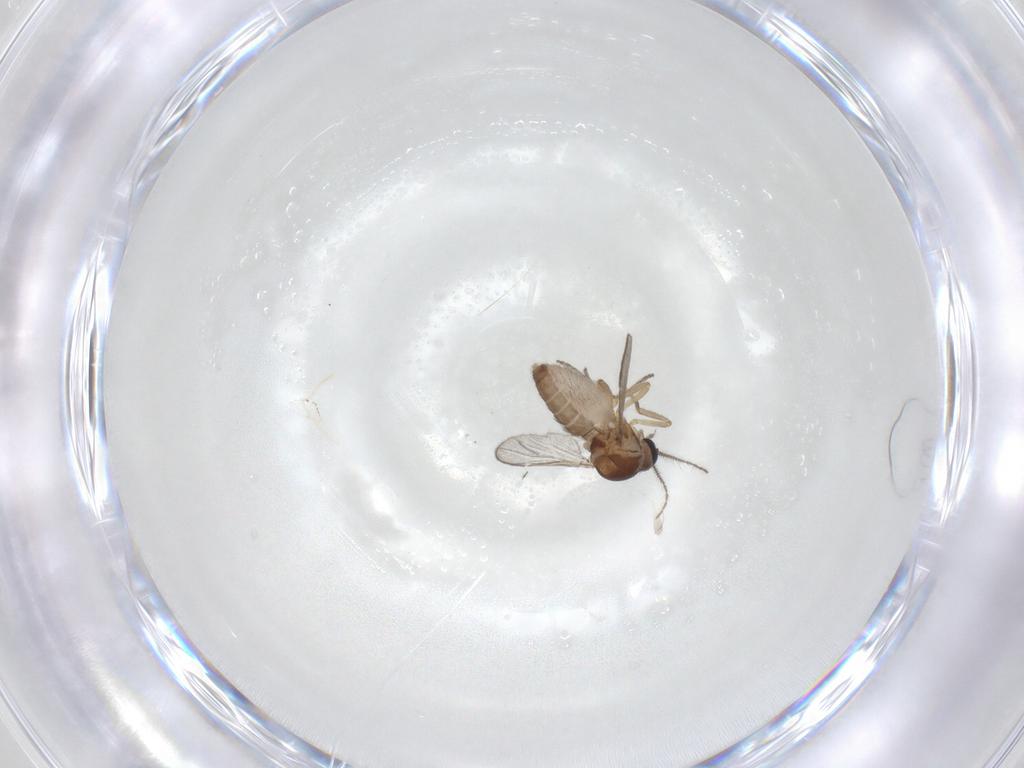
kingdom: Animalia
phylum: Arthropoda
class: Insecta
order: Diptera
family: Ceratopogonidae
